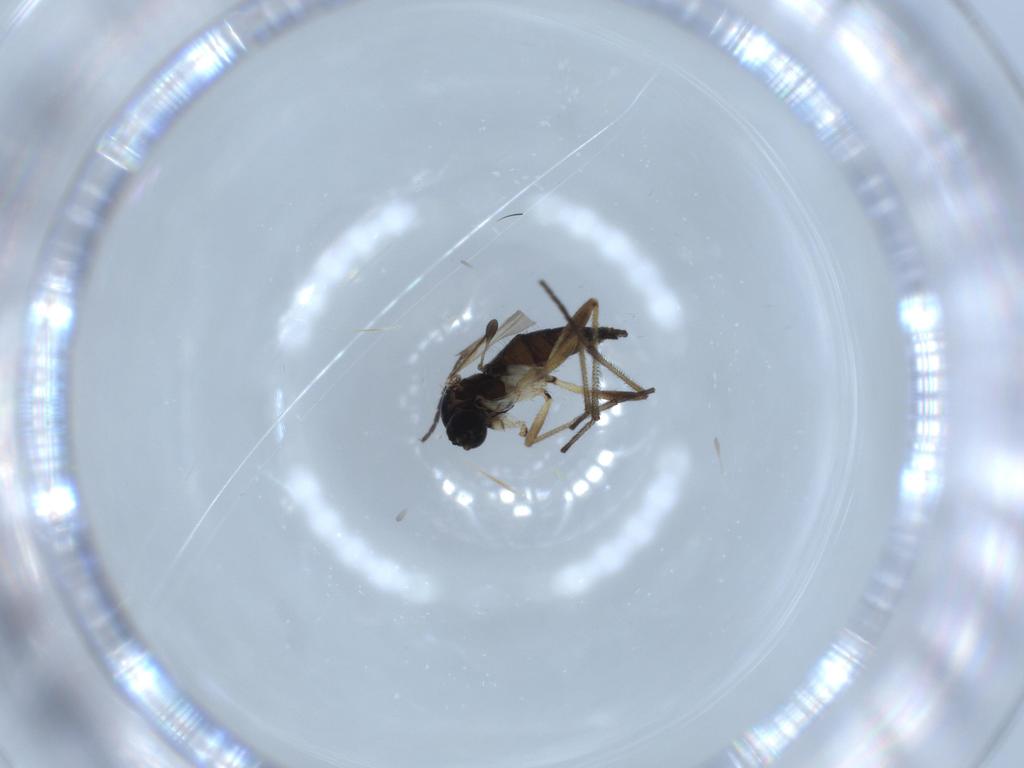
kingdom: Animalia
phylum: Arthropoda
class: Insecta
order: Diptera
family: Sciaridae
